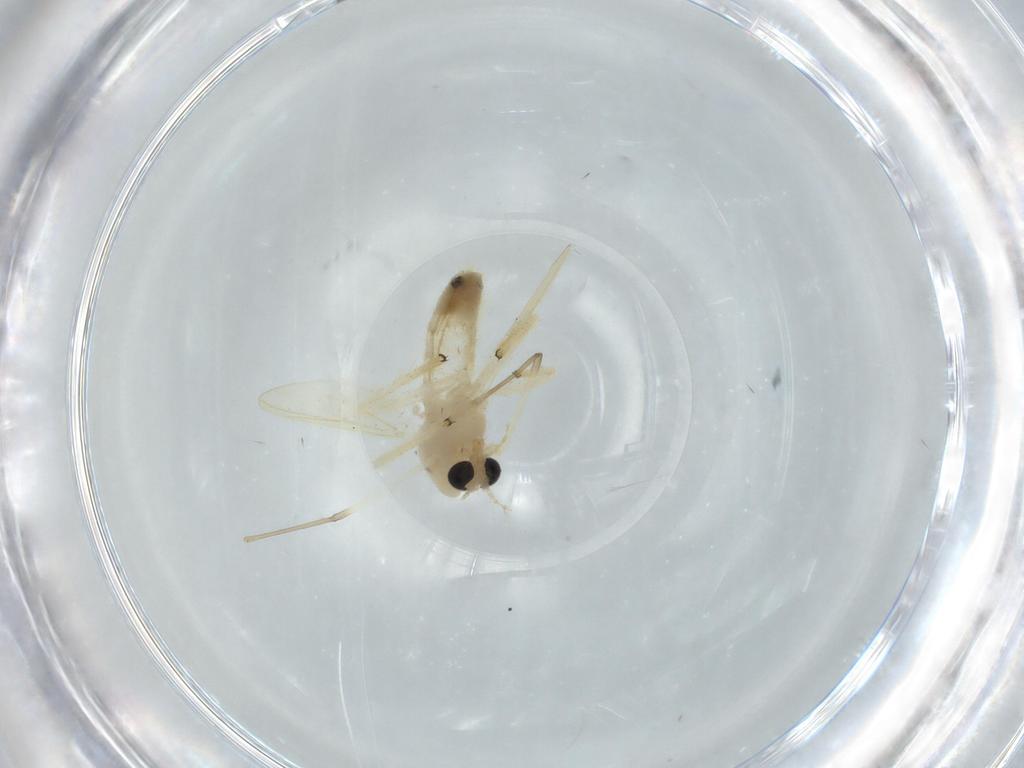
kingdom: Animalia
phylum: Arthropoda
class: Insecta
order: Diptera
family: Chironomidae
